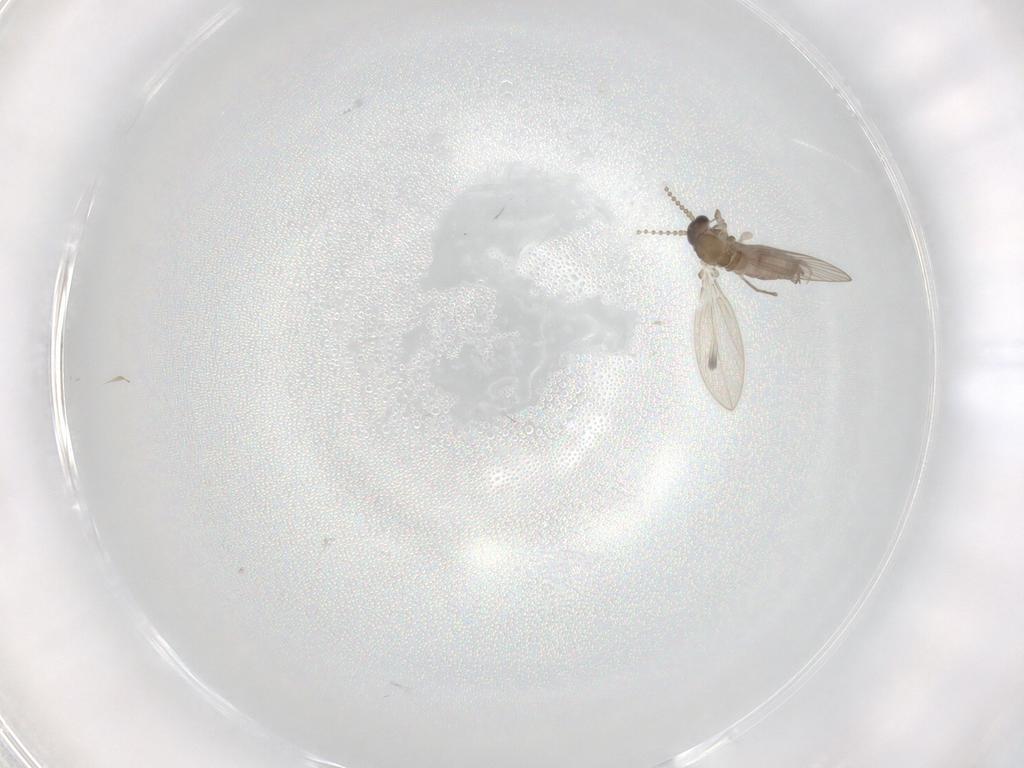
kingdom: Animalia
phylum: Arthropoda
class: Insecta
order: Diptera
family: Psychodidae
